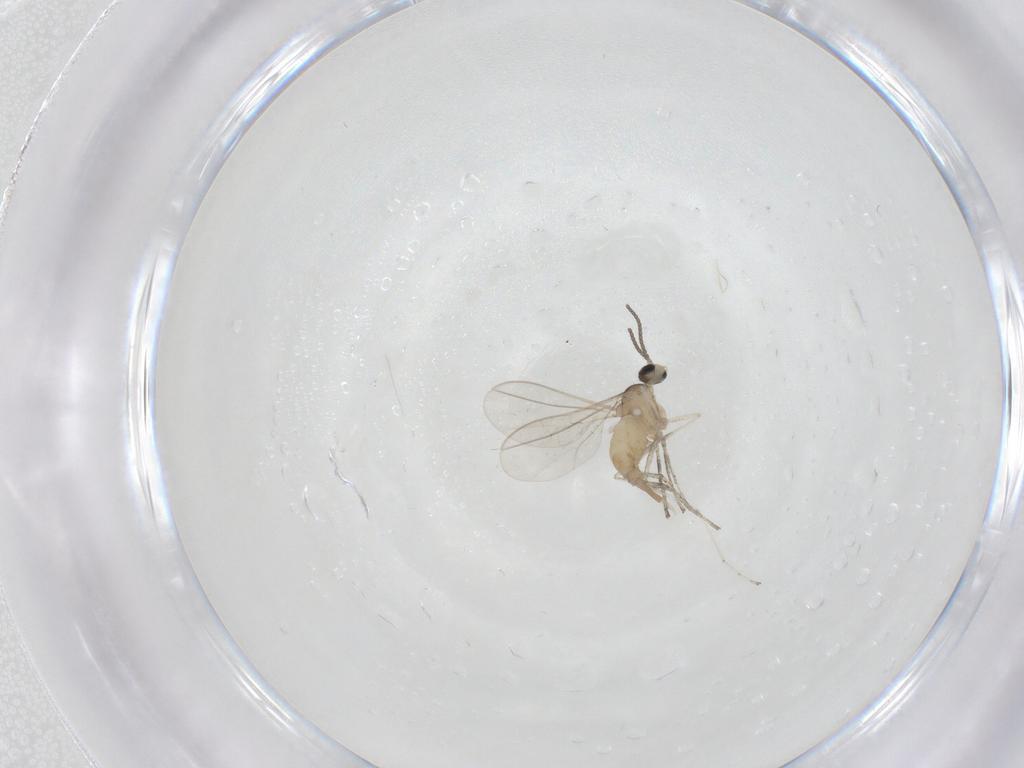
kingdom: Animalia
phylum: Arthropoda
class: Insecta
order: Diptera
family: Cecidomyiidae
